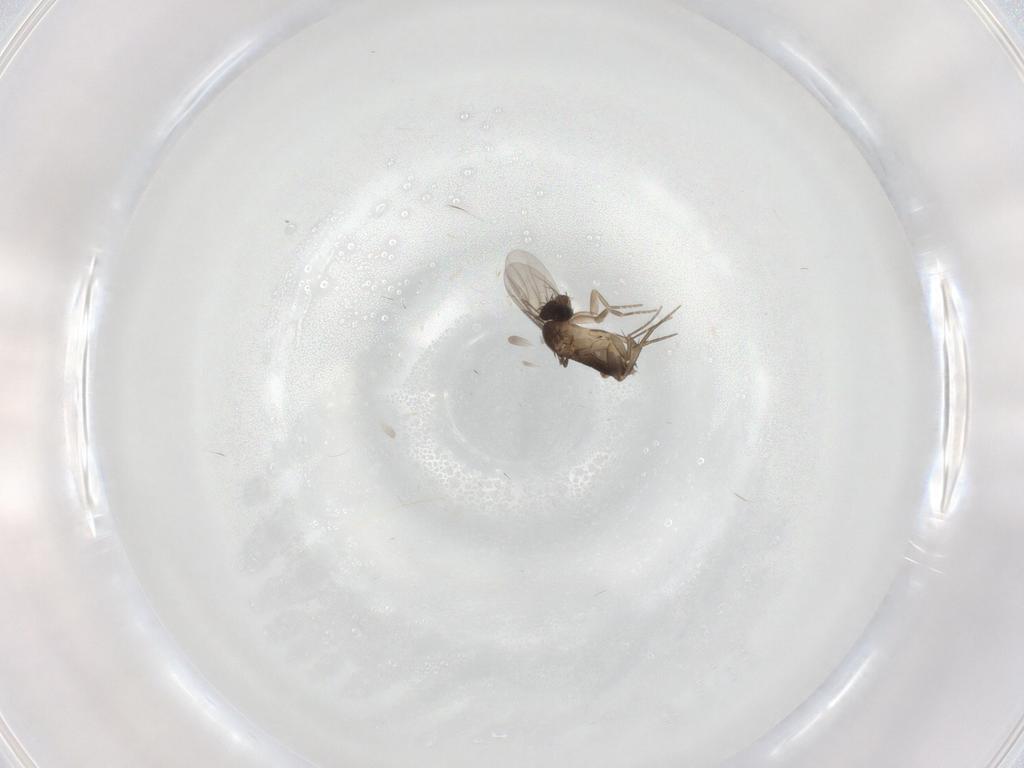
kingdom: Animalia
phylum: Arthropoda
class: Insecta
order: Diptera
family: Phoridae
